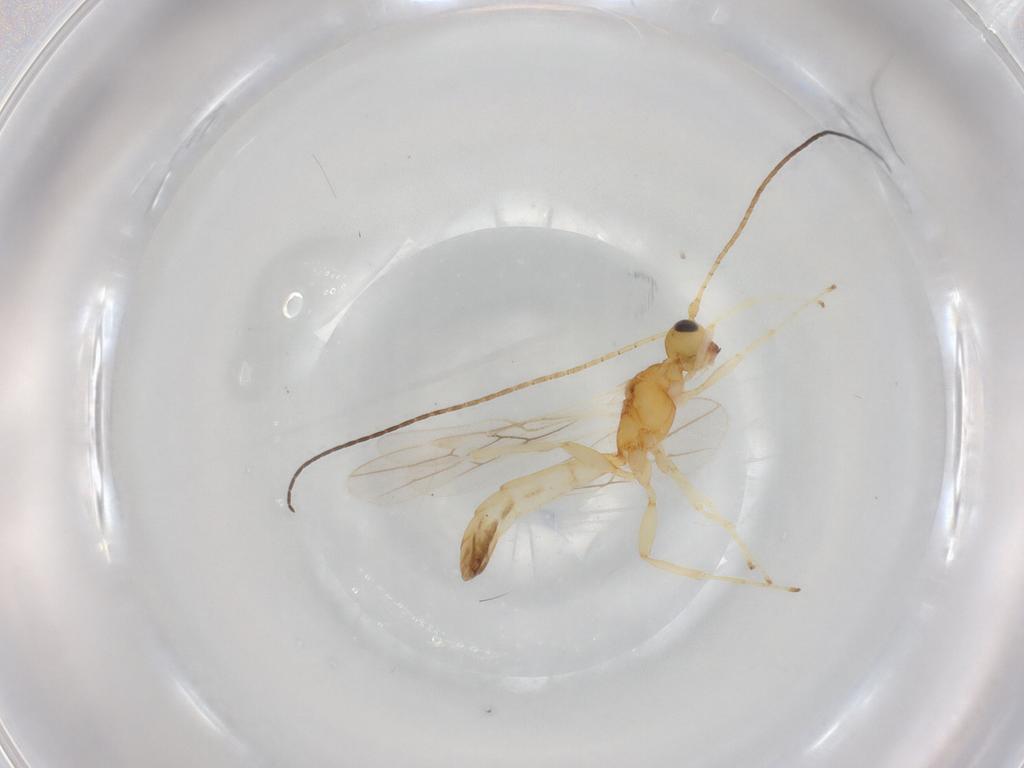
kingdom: Animalia
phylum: Arthropoda
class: Insecta
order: Hymenoptera
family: Braconidae
